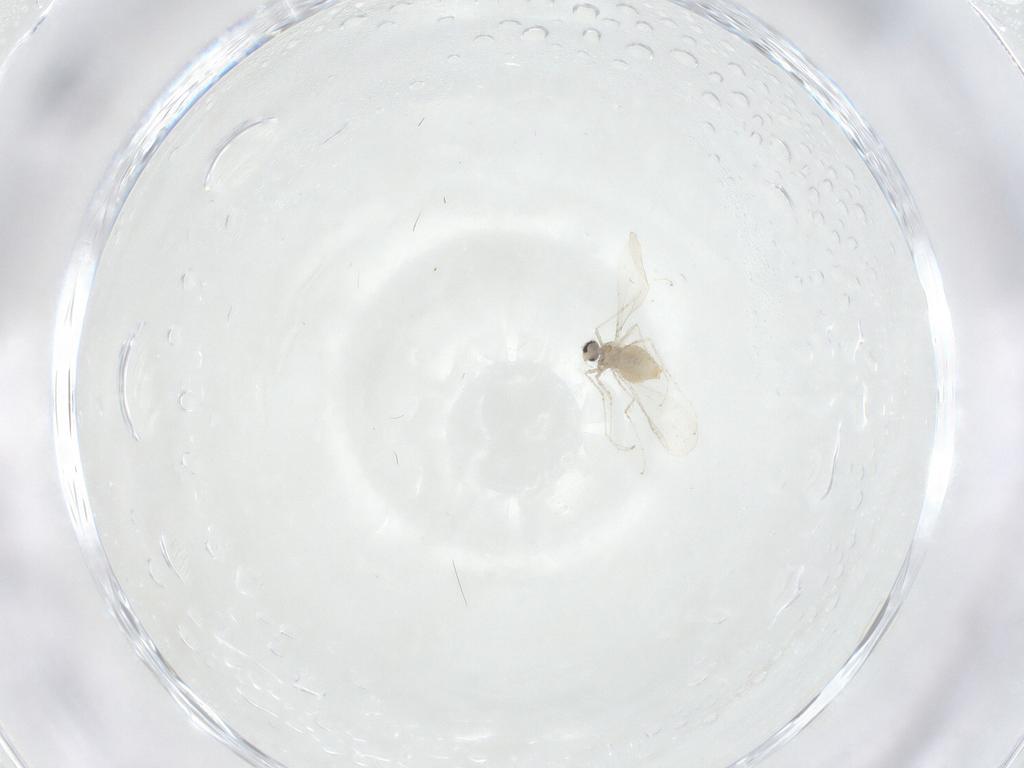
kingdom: Animalia
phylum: Arthropoda
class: Insecta
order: Diptera
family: Cecidomyiidae
